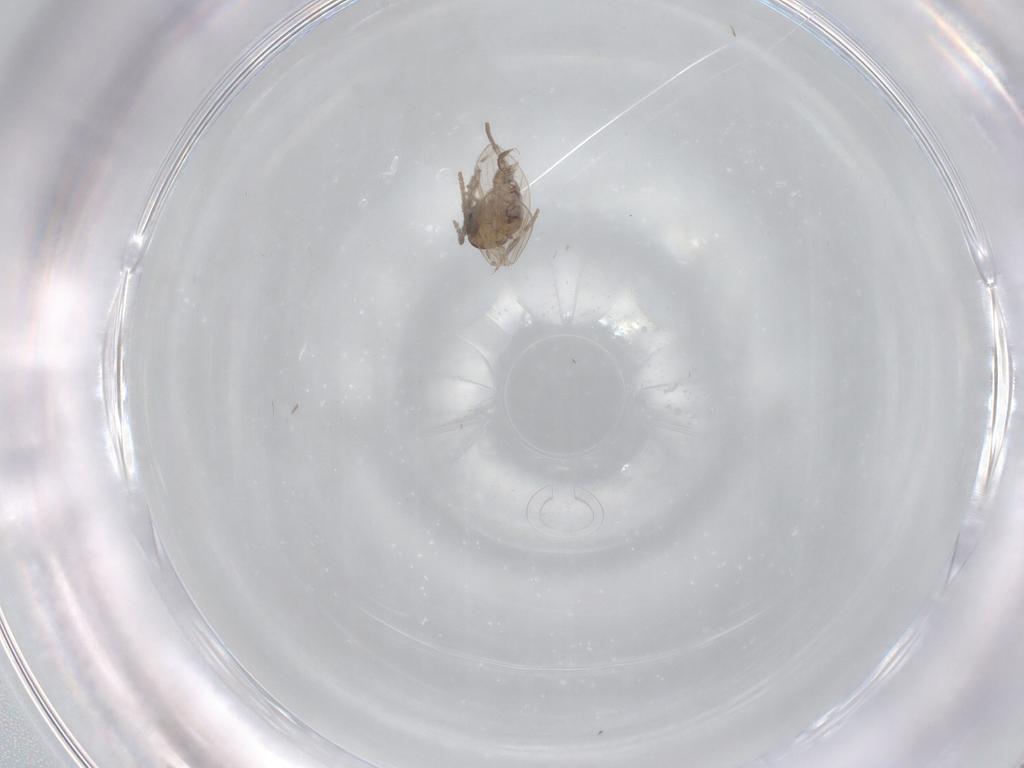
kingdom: Animalia
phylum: Arthropoda
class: Insecta
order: Diptera
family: Psychodidae
